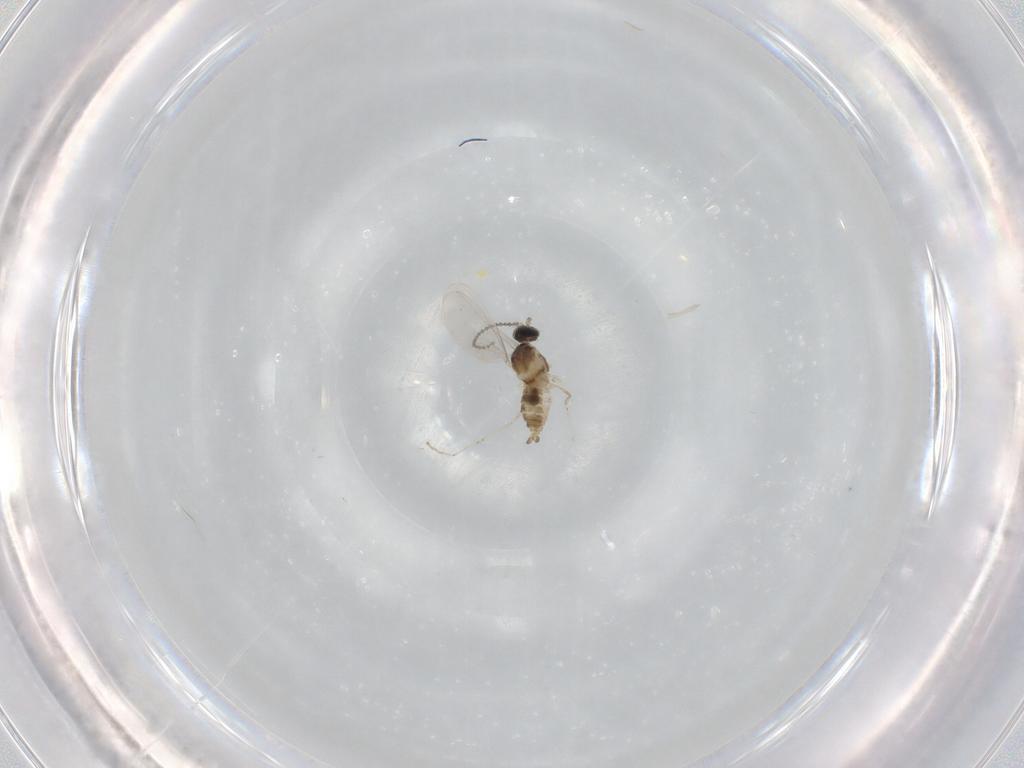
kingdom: Animalia
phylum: Arthropoda
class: Insecta
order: Diptera
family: Cecidomyiidae
